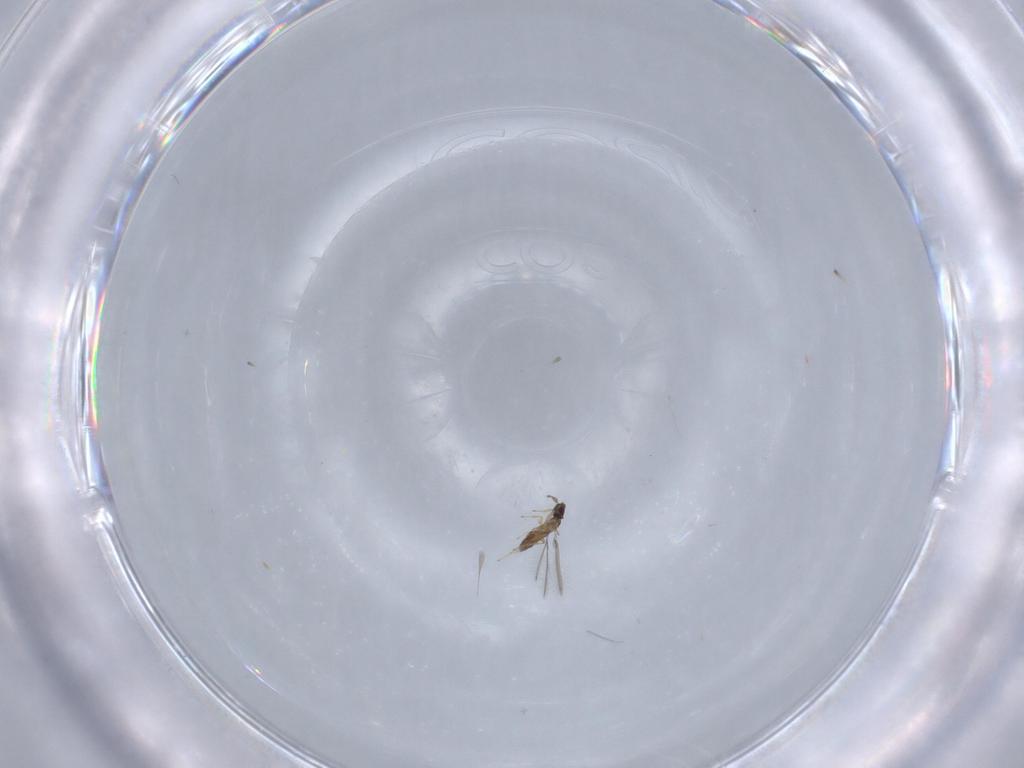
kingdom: Animalia
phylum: Arthropoda
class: Insecta
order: Hymenoptera
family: Mymaridae
